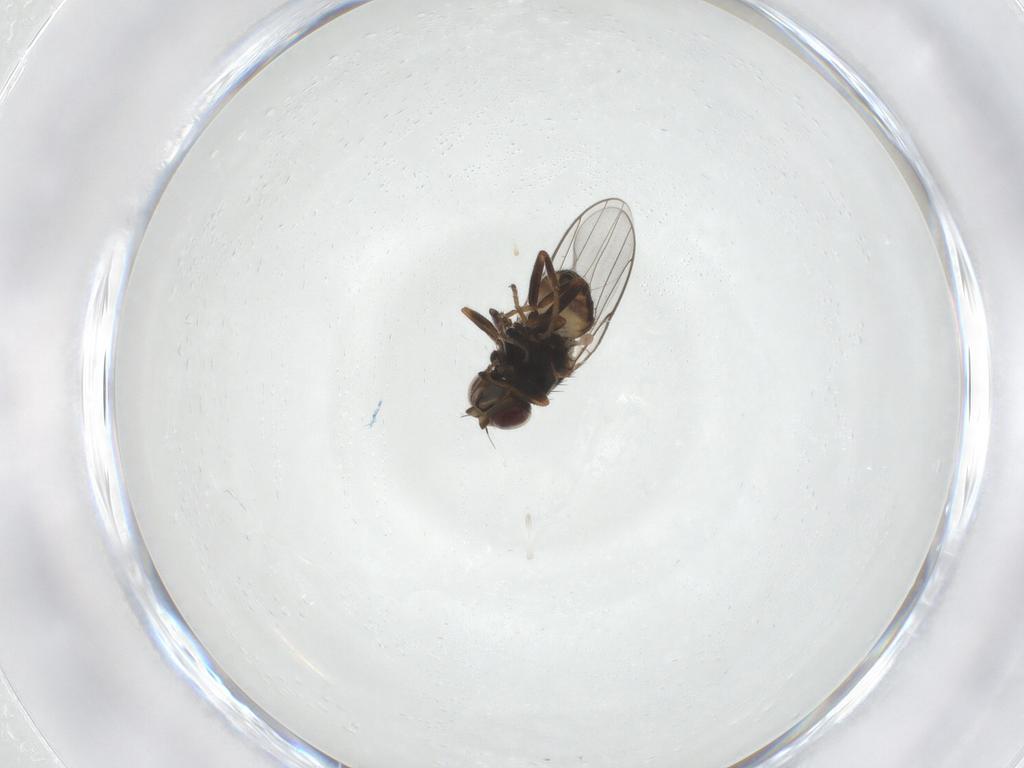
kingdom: Animalia
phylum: Arthropoda
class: Insecta
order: Diptera
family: Chloropidae
